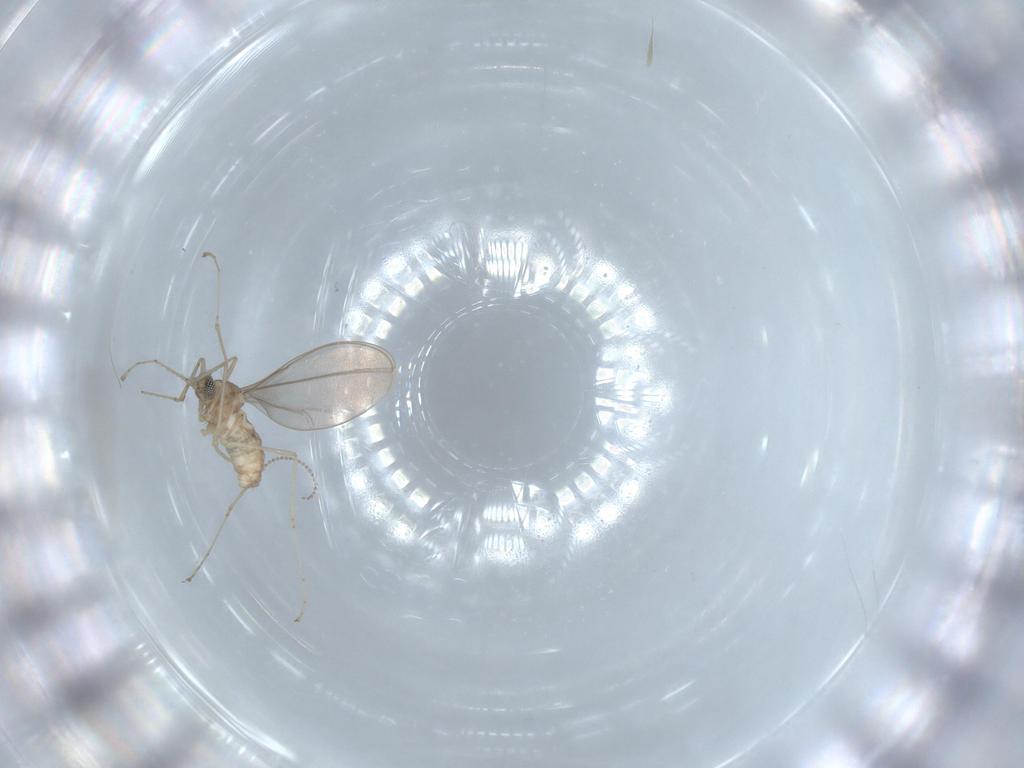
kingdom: Animalia
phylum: Arthropoda
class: Insecta
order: Diptera
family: Cecidomyiidae
